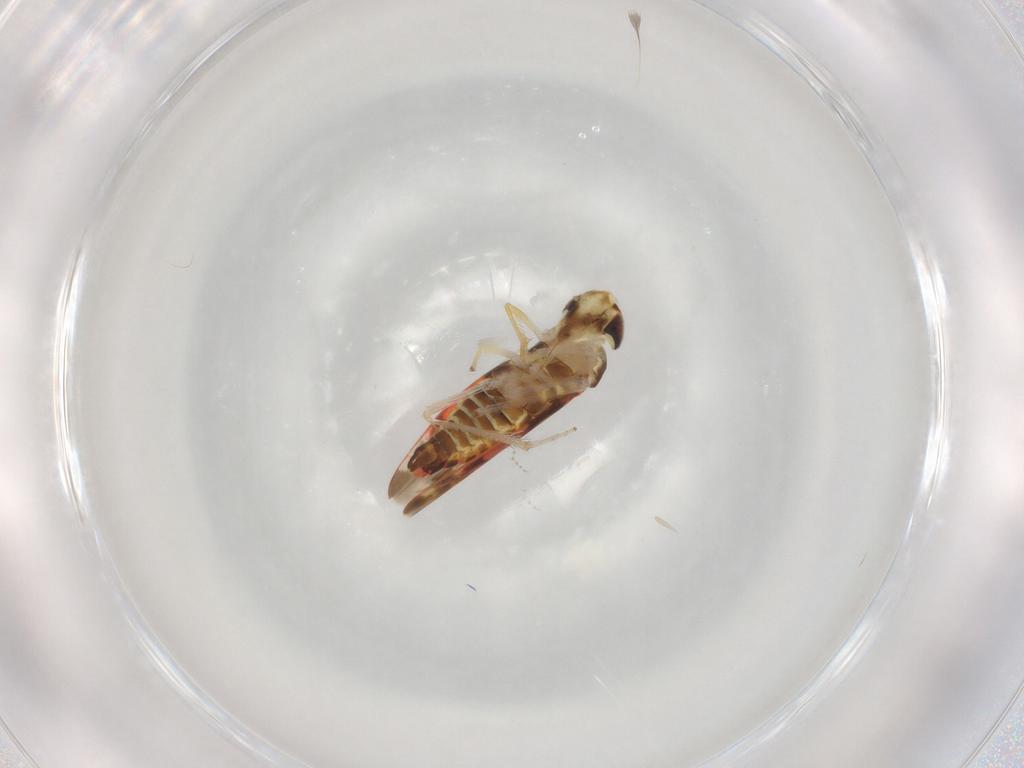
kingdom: Animalia
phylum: Arthropoda
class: Insecta
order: Hemiptera
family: Cicadellidae
